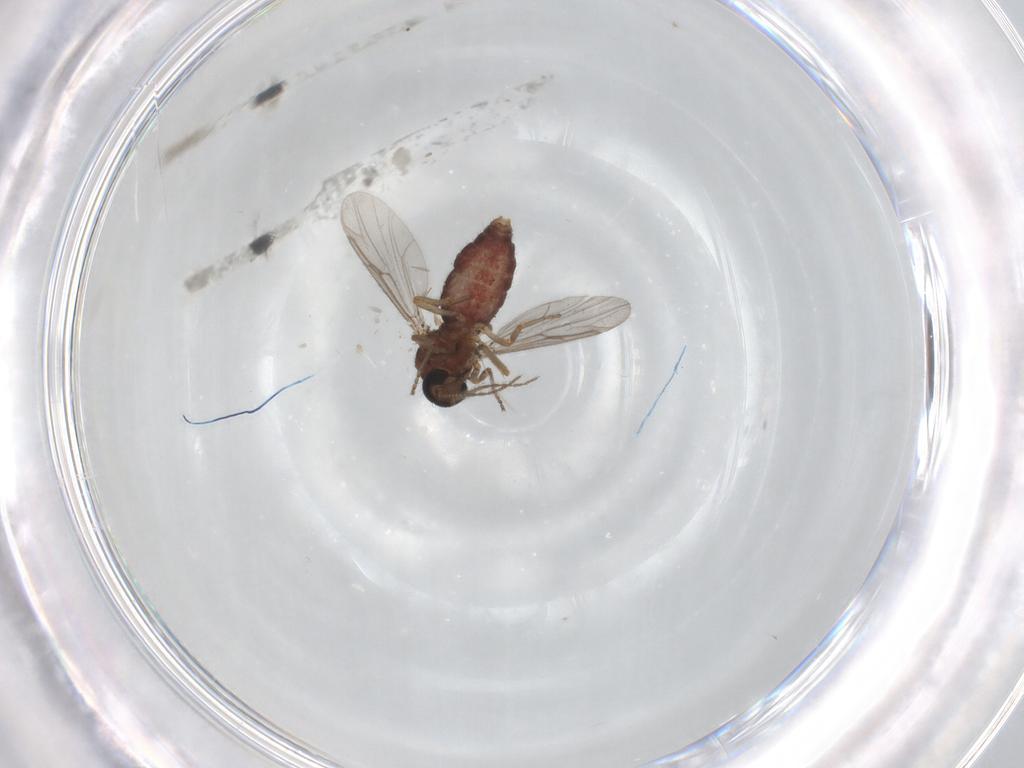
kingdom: Animalia
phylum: Arthropoda
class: Insecta
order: Diptera
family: Ceratopogonidae
